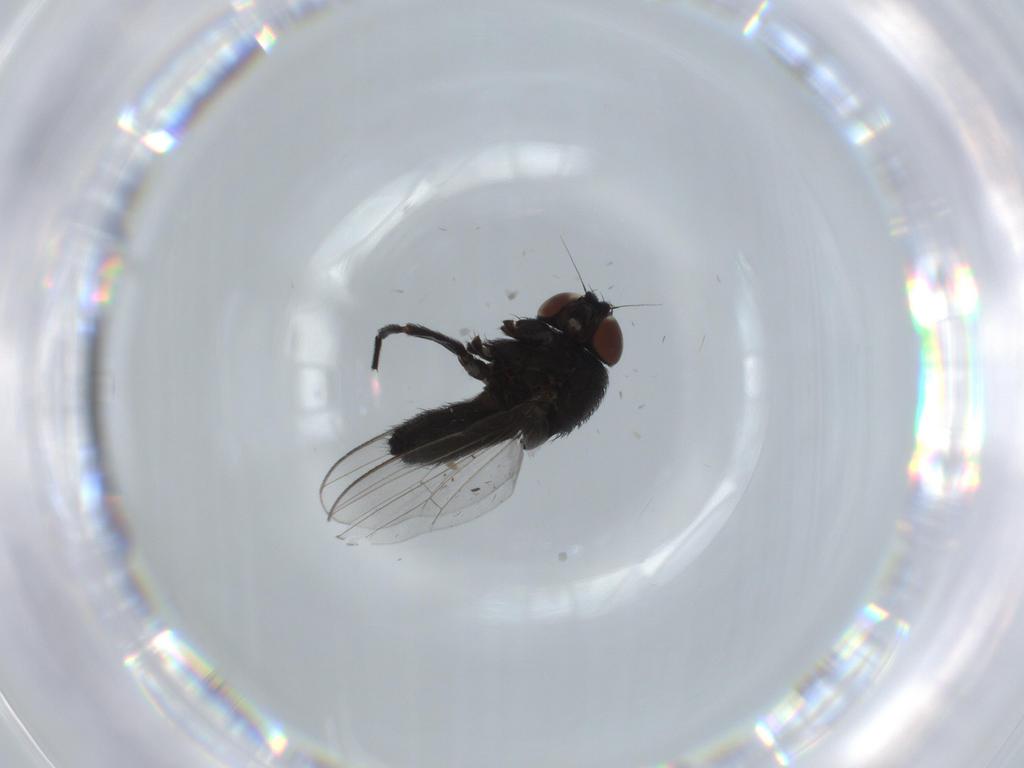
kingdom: Animalia
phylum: Arthropoda
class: Insecta
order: Diptera
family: Milichiidae
